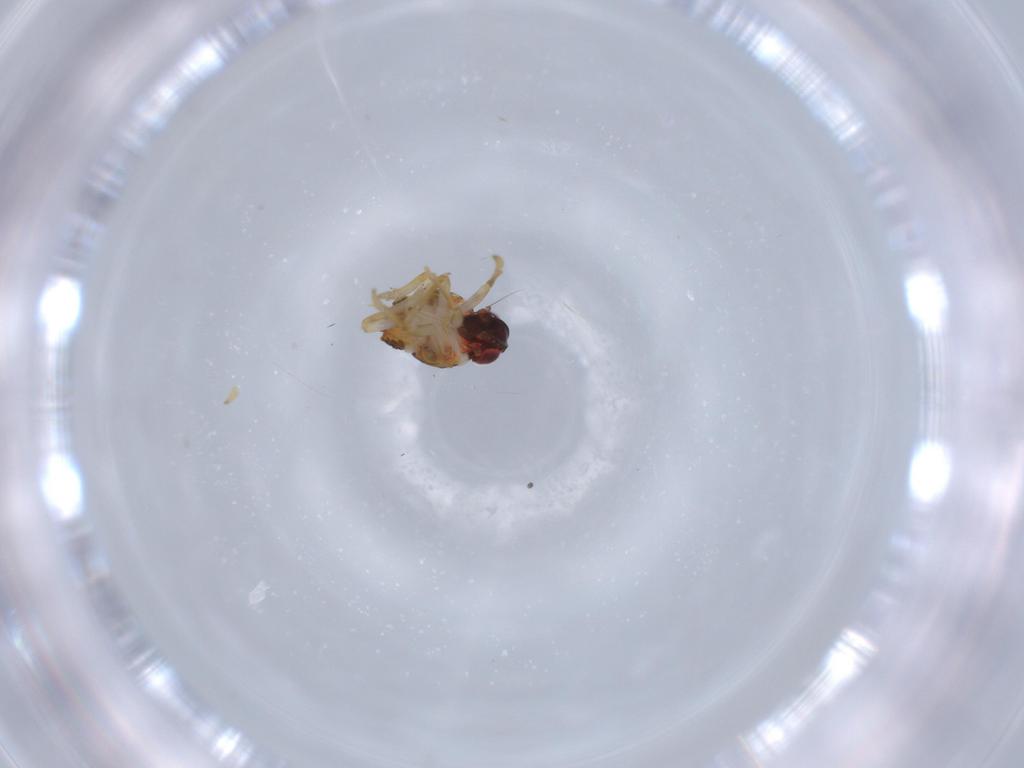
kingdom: Animalia
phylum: Arthropoda
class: Insecta
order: Hemiptera
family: Issidae
